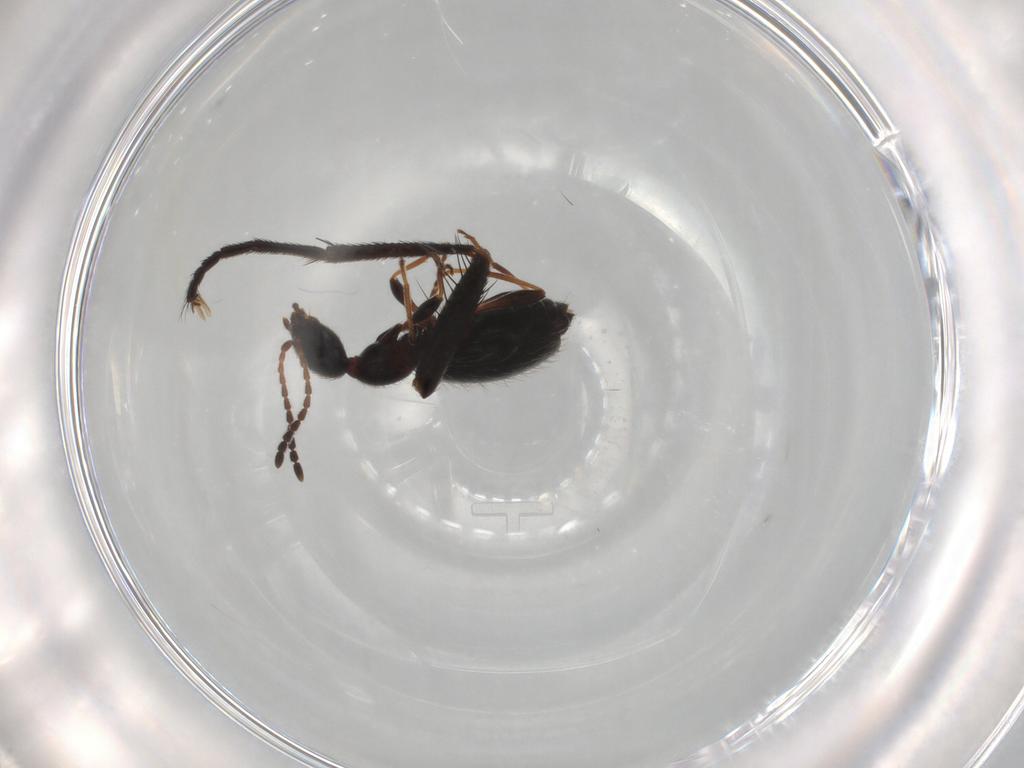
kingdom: Animalia
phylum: Arthropoda
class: Insecta
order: Coleoptera
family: Anthicidae
